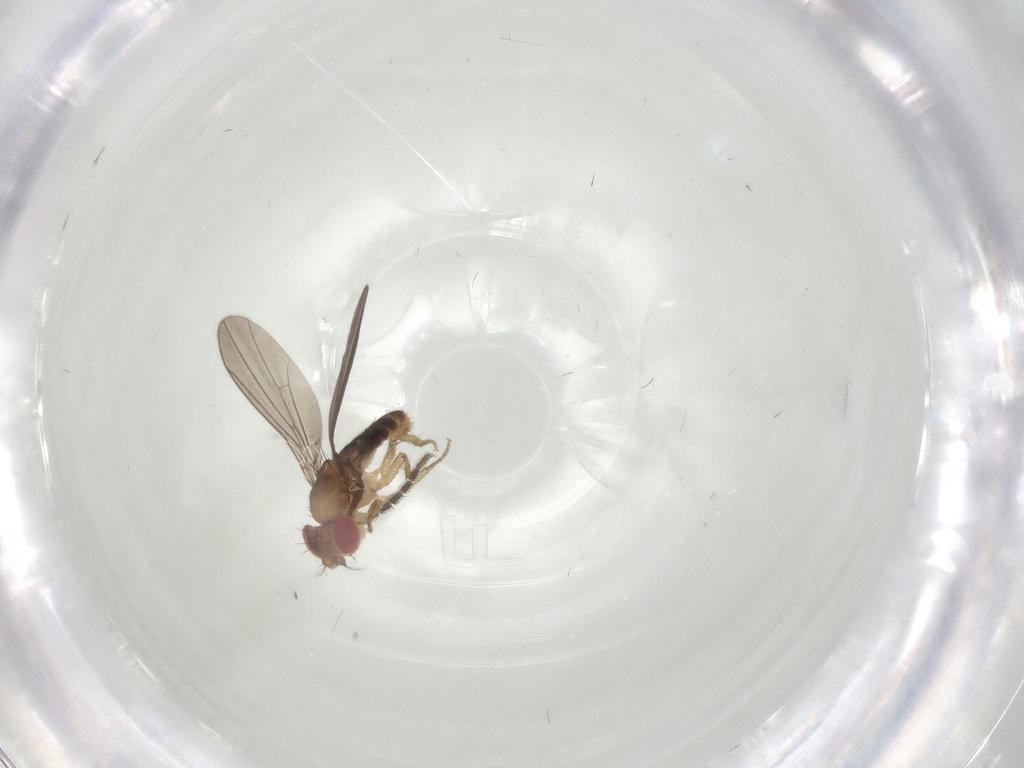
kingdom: Animalia
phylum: Arthropoda
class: Insecta
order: Diptera
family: Drosophilidae
